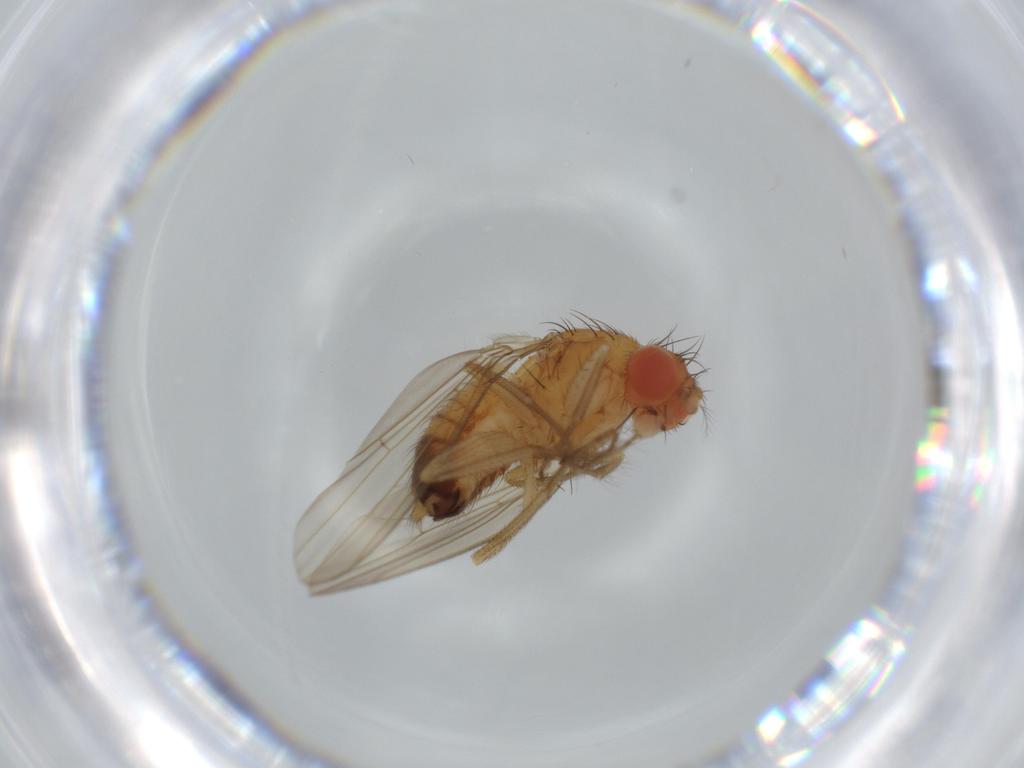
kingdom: Animalia
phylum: Arthropoda
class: Insecta
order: Diptera
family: Drosophilidae
